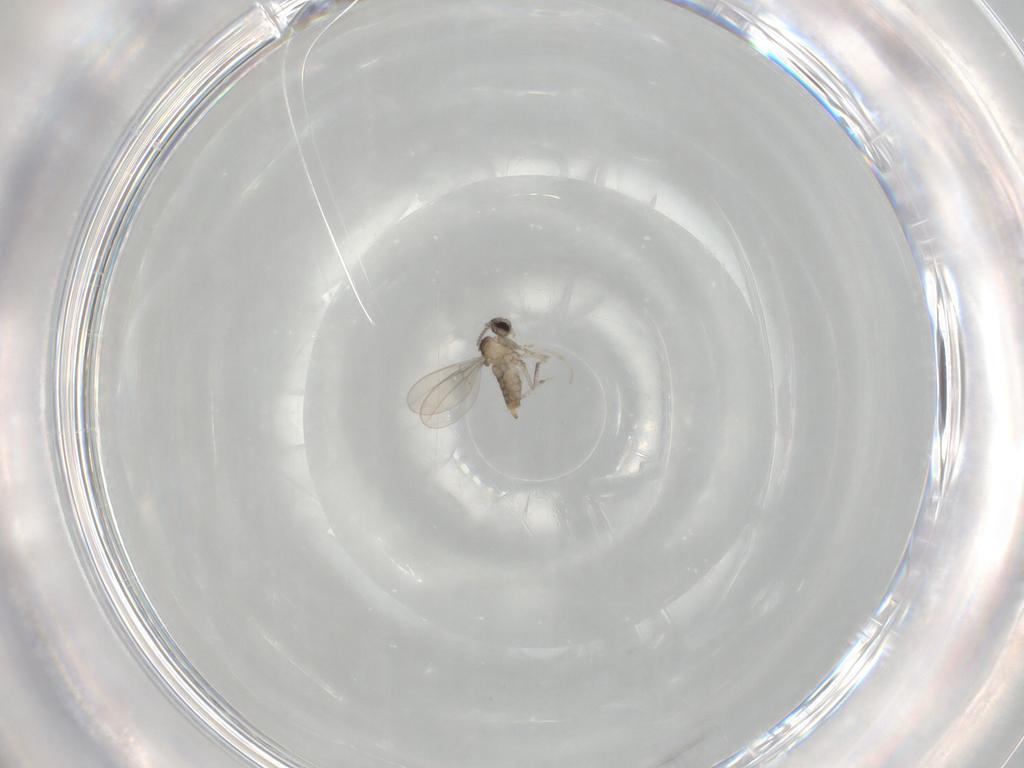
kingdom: Animalia
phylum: Arthropoda
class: Insecta
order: Diptera
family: Cecidomyiidae
